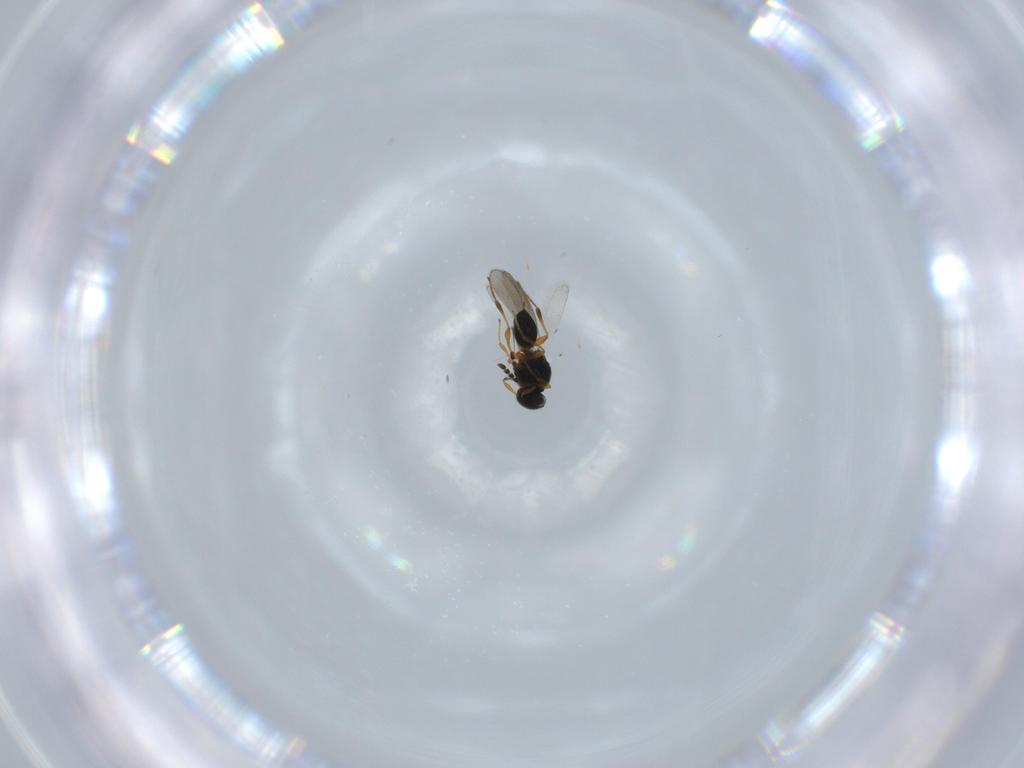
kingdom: Animalia
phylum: Arthropoda
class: Insecta
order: Hymenoptera
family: Platygastridae
